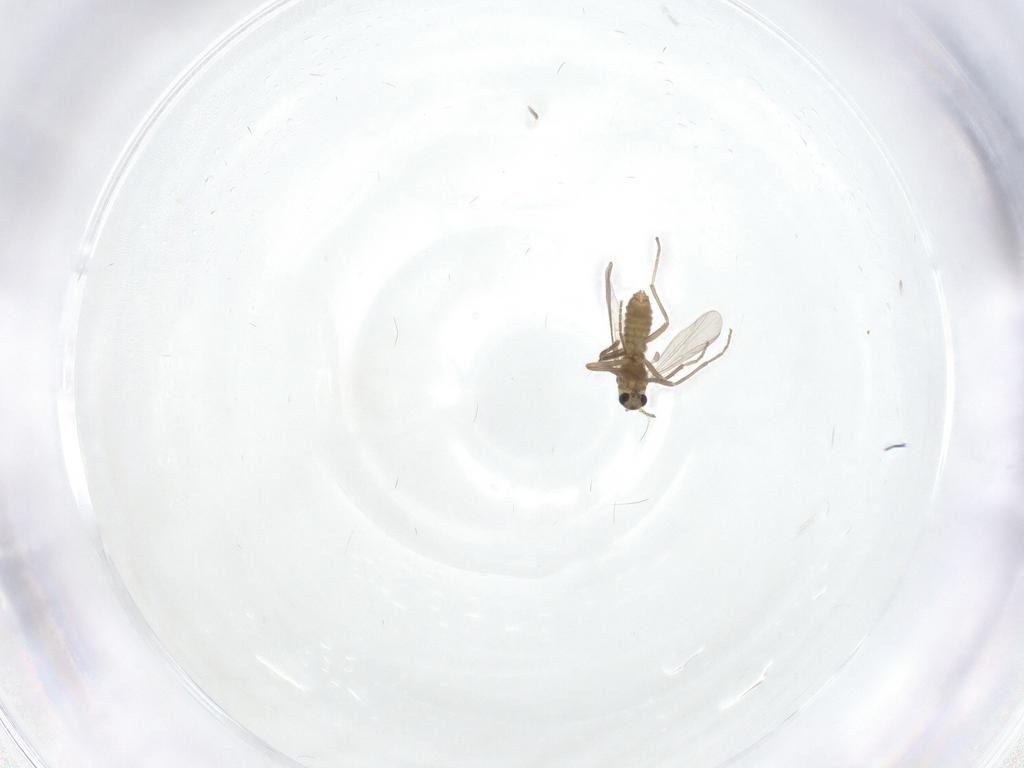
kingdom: Animalia
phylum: Arthropoda
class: Insecta
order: Diptera
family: Chironomidae
